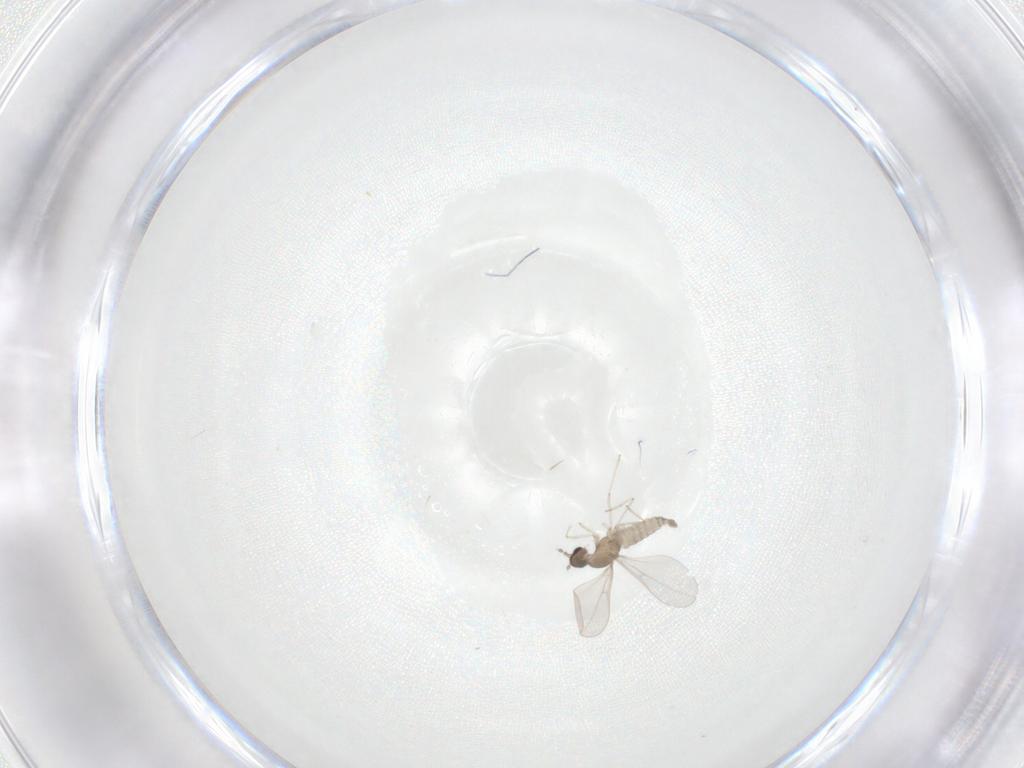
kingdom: Animalia
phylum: Arthropoda
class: Insecta
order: Diptera
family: Cecidomyiidae
